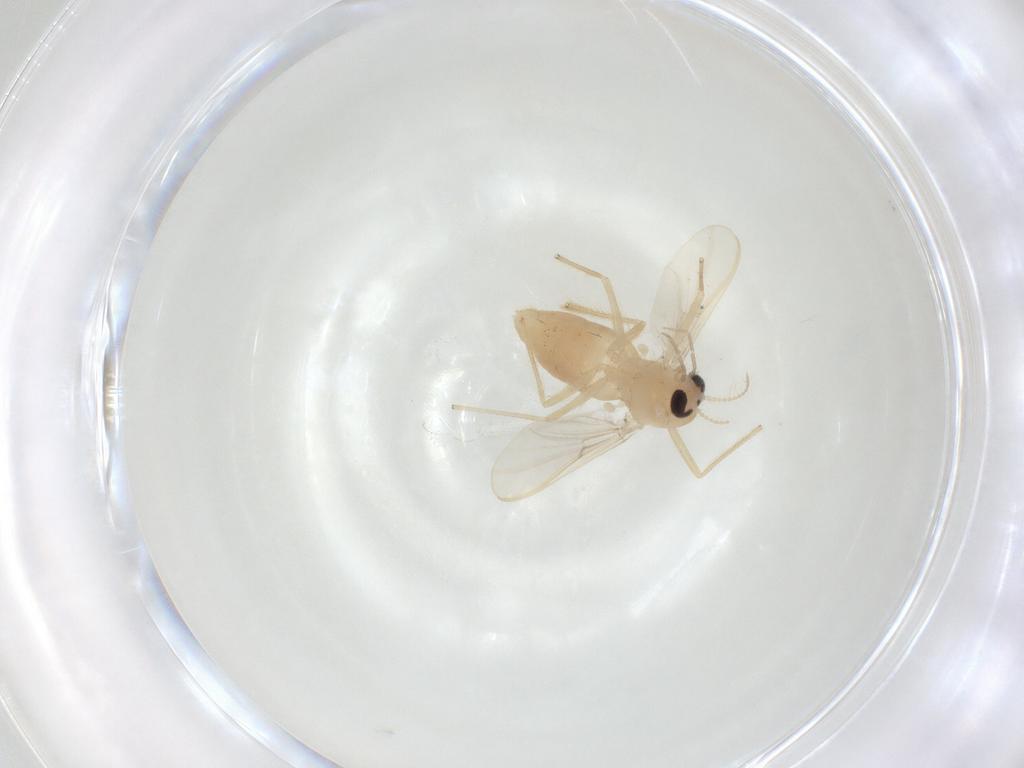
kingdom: Animalia
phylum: Arthropoda
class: Insecta
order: Diptera
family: Chironomidae
